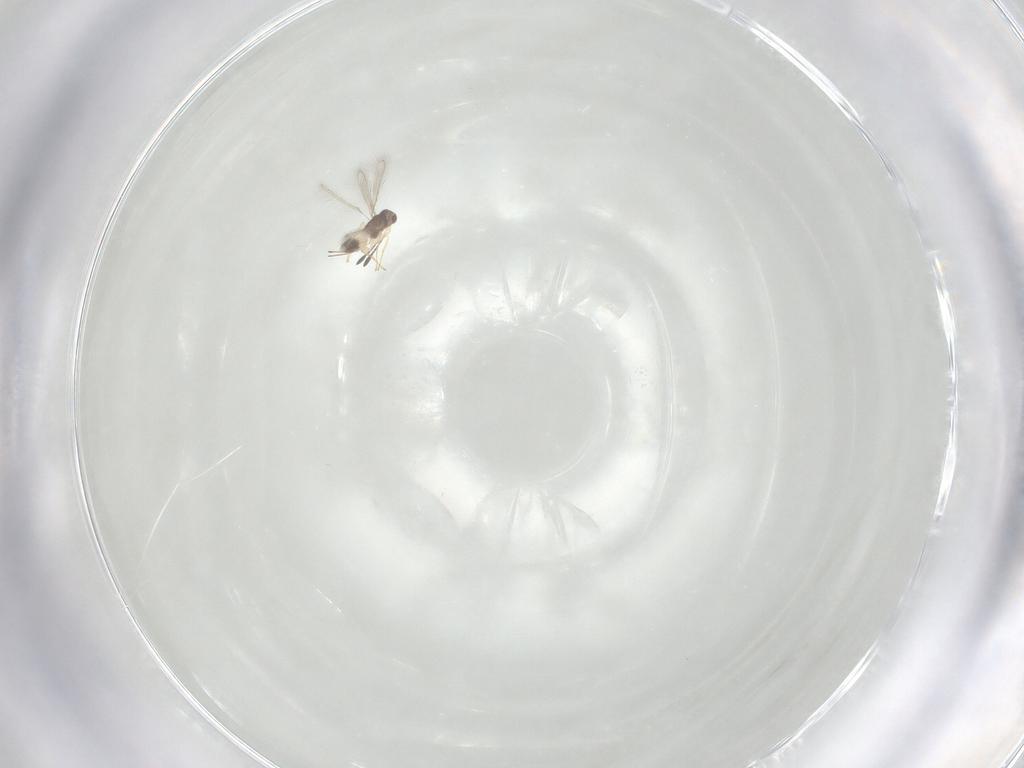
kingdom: Animalia
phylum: Arthropoda
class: Insecta
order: Hymenoptera
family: Mymaridae
